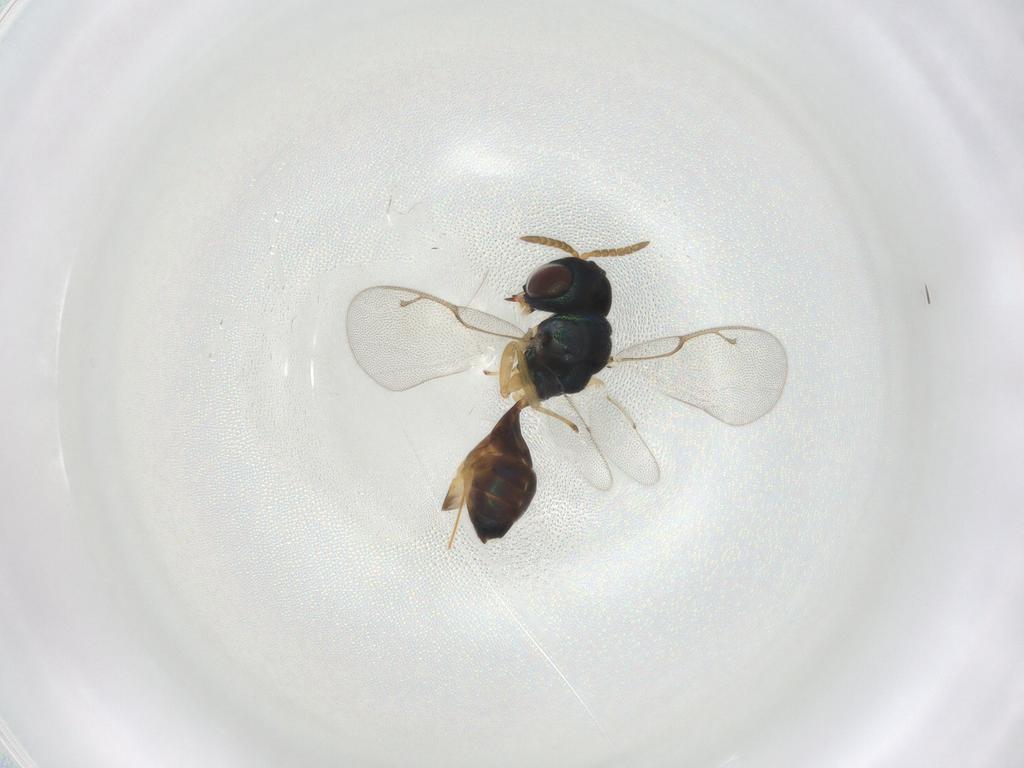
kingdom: Animalia
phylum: Arthropoda
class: Insecta
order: Hymenoptera
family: Pteromalidae
